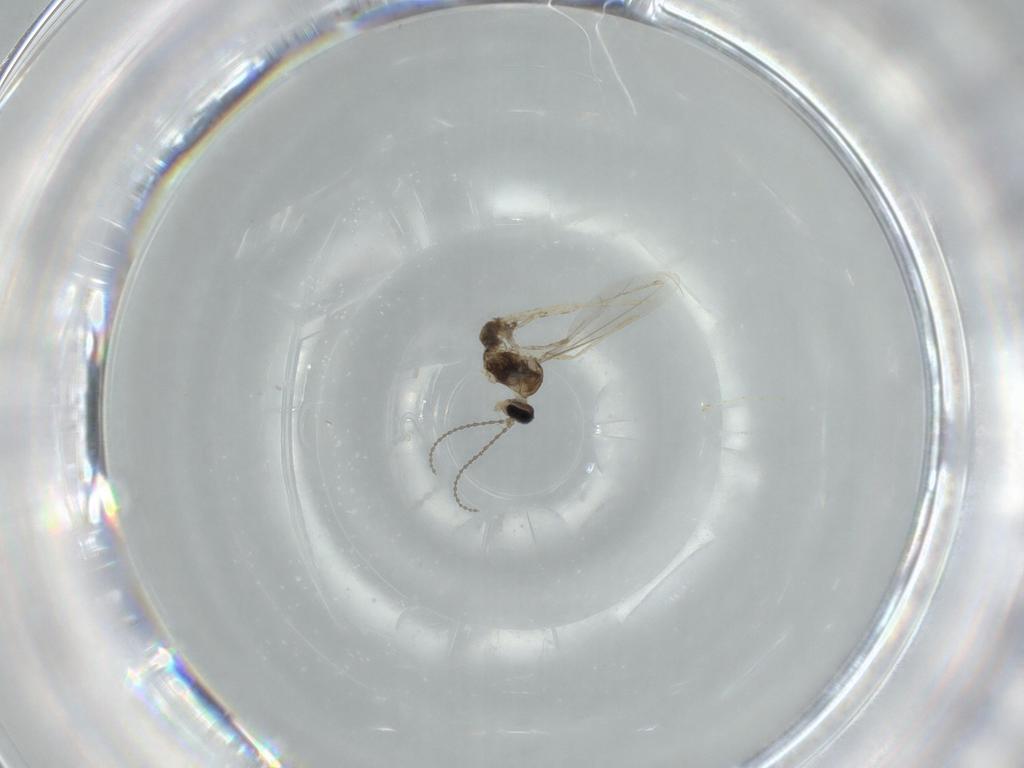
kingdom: Animalia
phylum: Arthropoda
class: Insecta
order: Diptera
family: Cecidomyiidae
